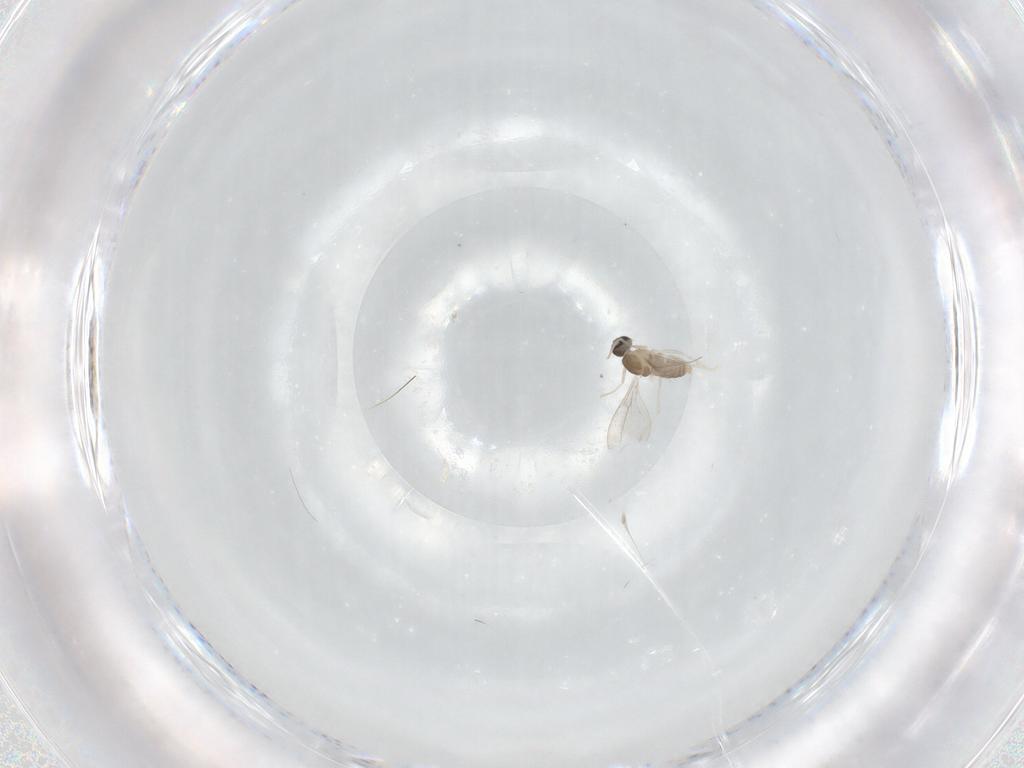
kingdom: Animalia
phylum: Arthropoda
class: Insecta
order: Diptera
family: Cecidomyiidae
